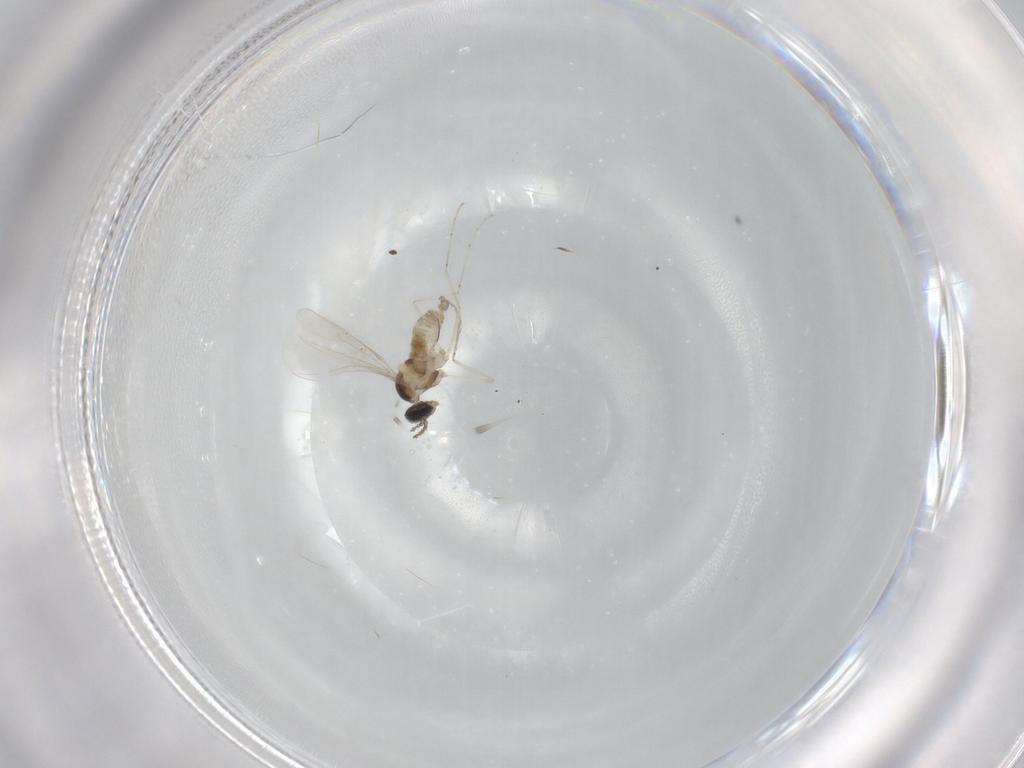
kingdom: Animalia
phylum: Arthropoda
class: Insecta
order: Diptera
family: Cecidomyiidae
